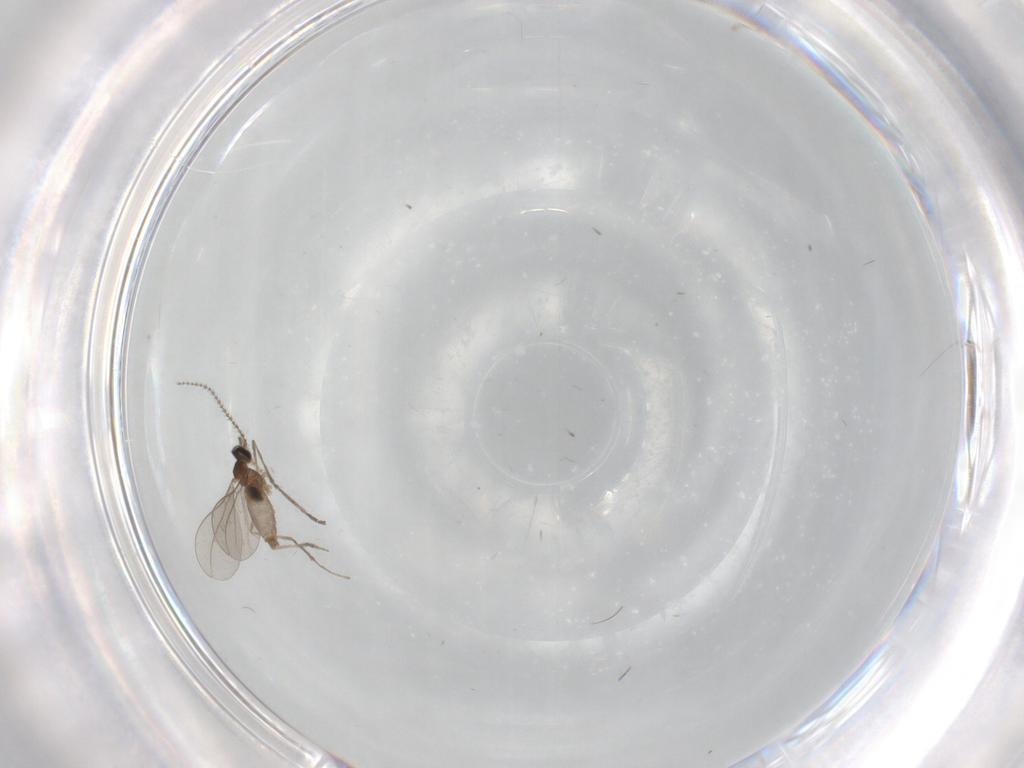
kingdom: Animalia
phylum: Arthropoda
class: Insecta
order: Diptera
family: Cecidomyiidae
